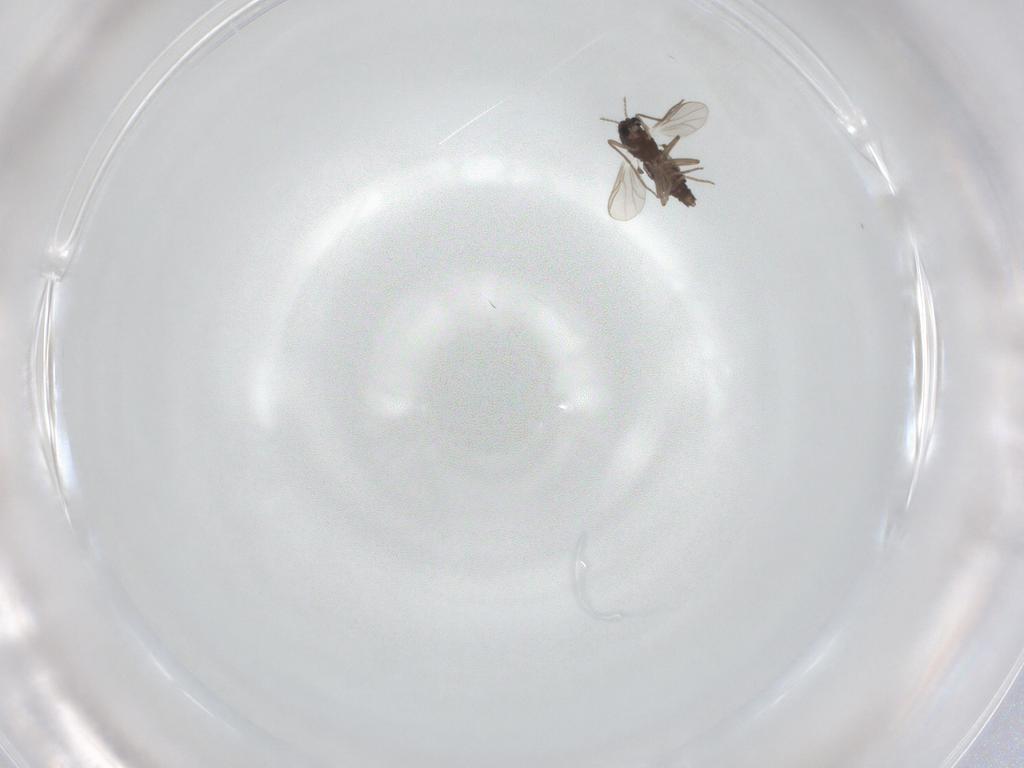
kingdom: Animalia
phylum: Arthropoda
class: Insecta
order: Diptera
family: Chironomidae
